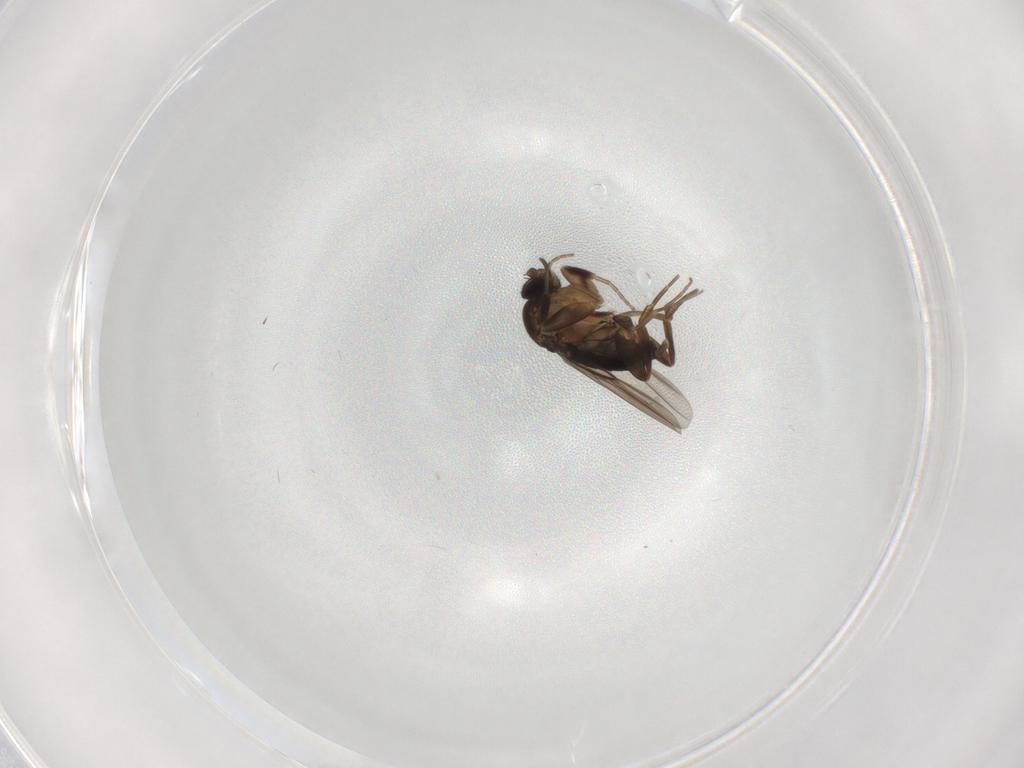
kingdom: Animalia
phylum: Arthropoda
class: Insecta
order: Diptera
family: Phoridae
